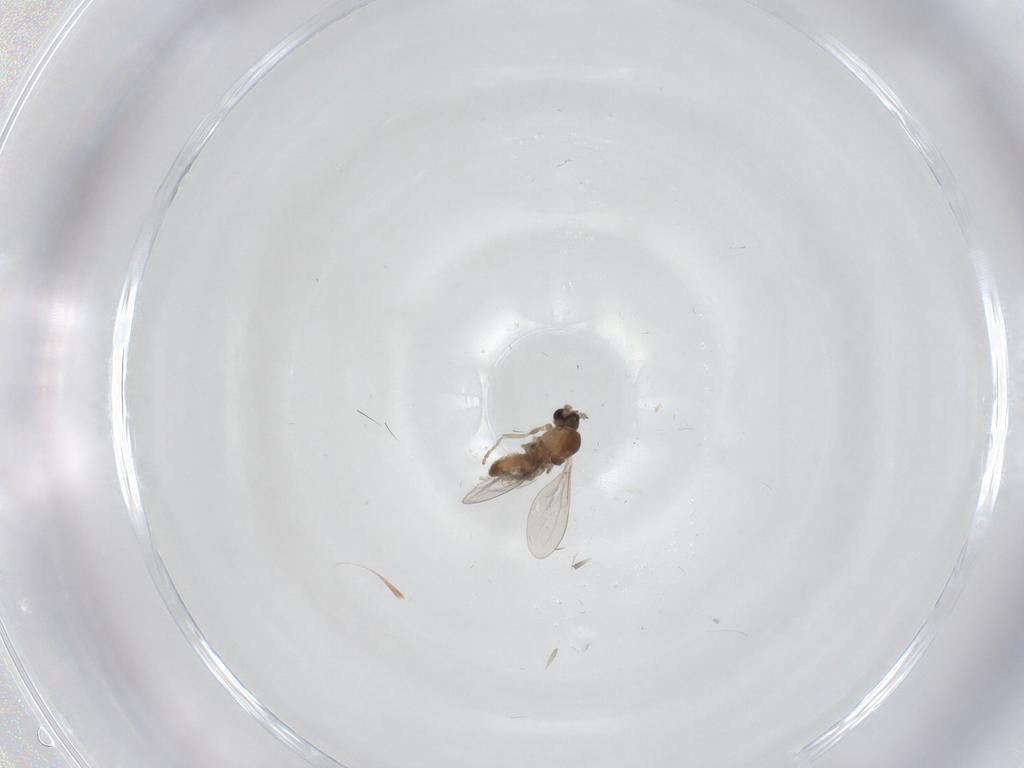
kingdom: Animalia
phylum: Arthropoda
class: Insecta
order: Diptera
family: Cecidomyiidae
